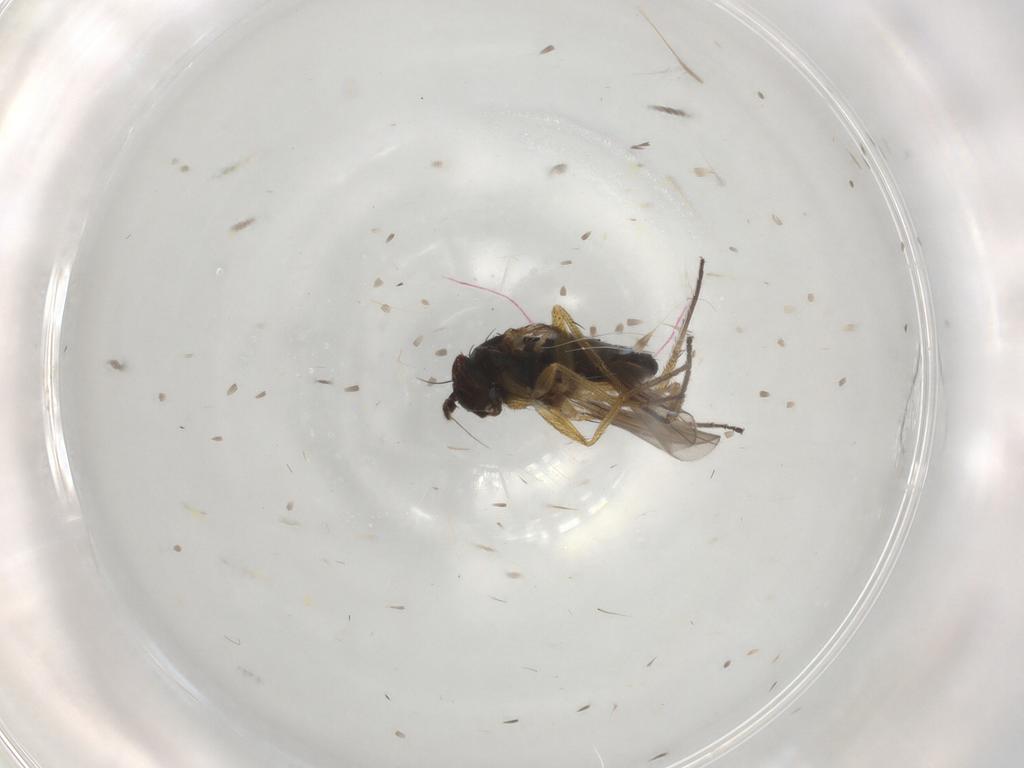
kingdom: Animalia
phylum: Arthropoda
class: Insecta
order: Diptera
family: Dolichopodidae
